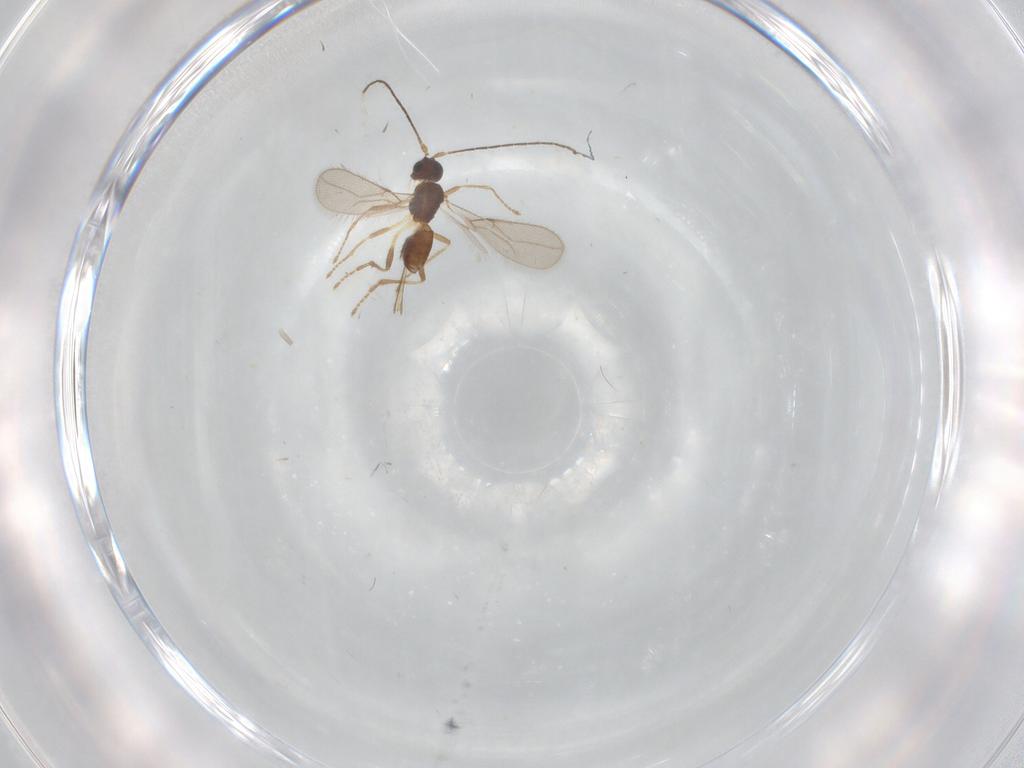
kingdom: Animalia
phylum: Arthropoda
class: Insecta
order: Hymenoptera
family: Braconidae
